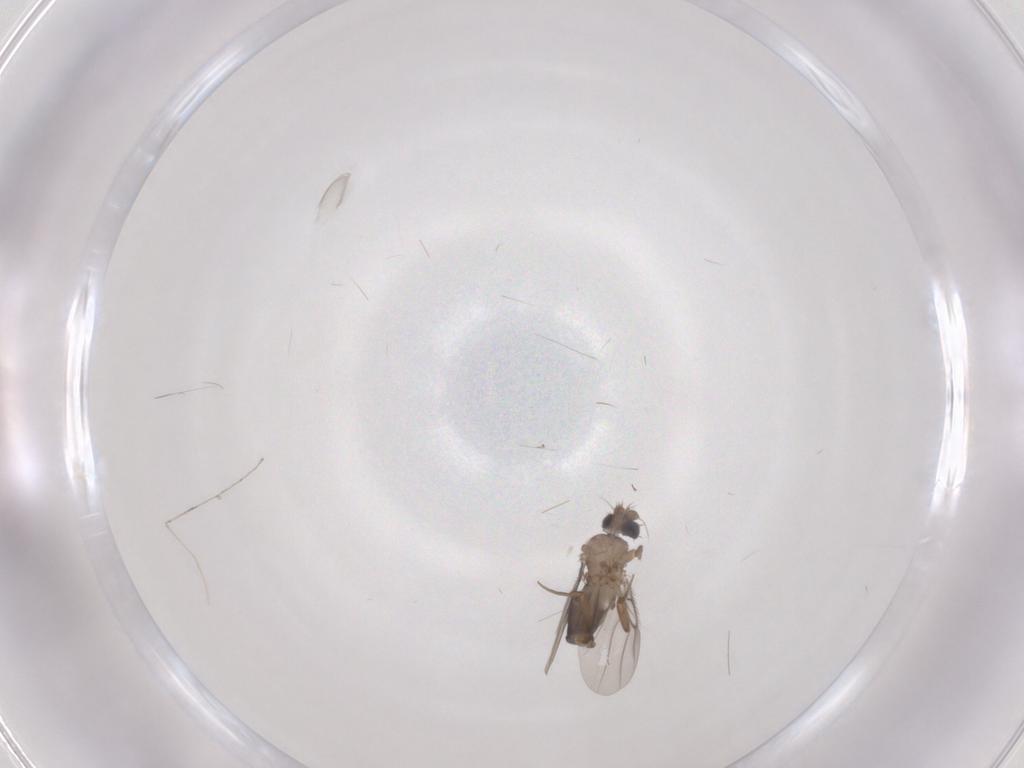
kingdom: Animalia
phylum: Arthropoda
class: Insecta
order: Diptera
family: Phoridae
